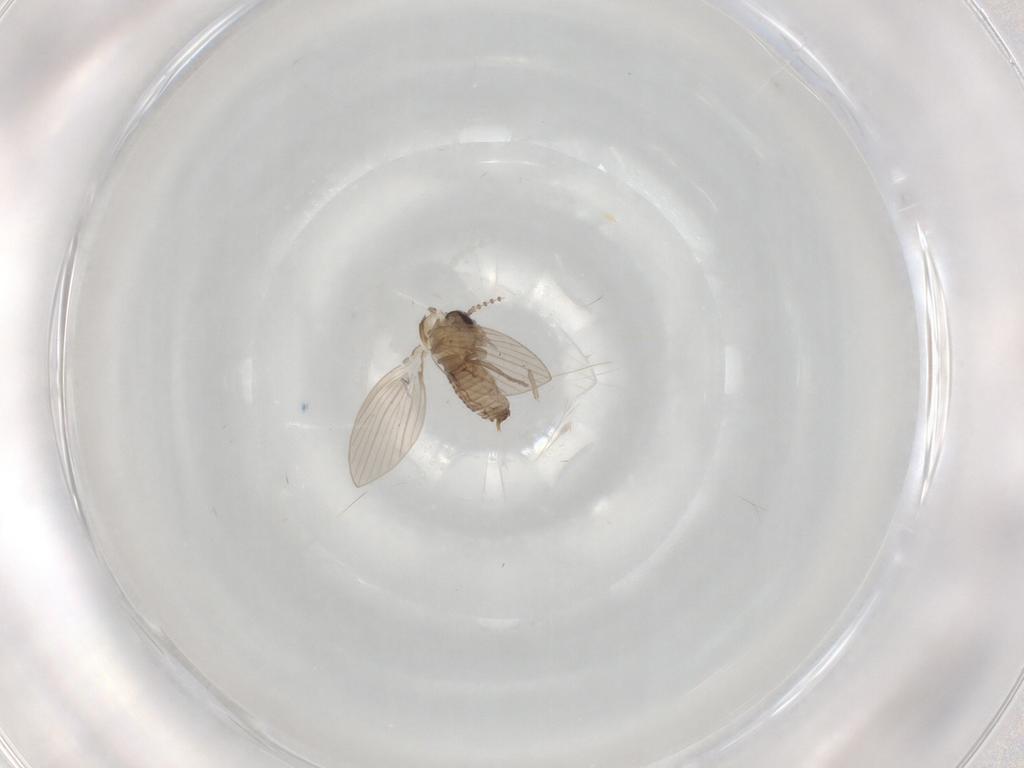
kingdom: Animalia
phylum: Arthropoda
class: Insecta
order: Diptera
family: Psychodidae
